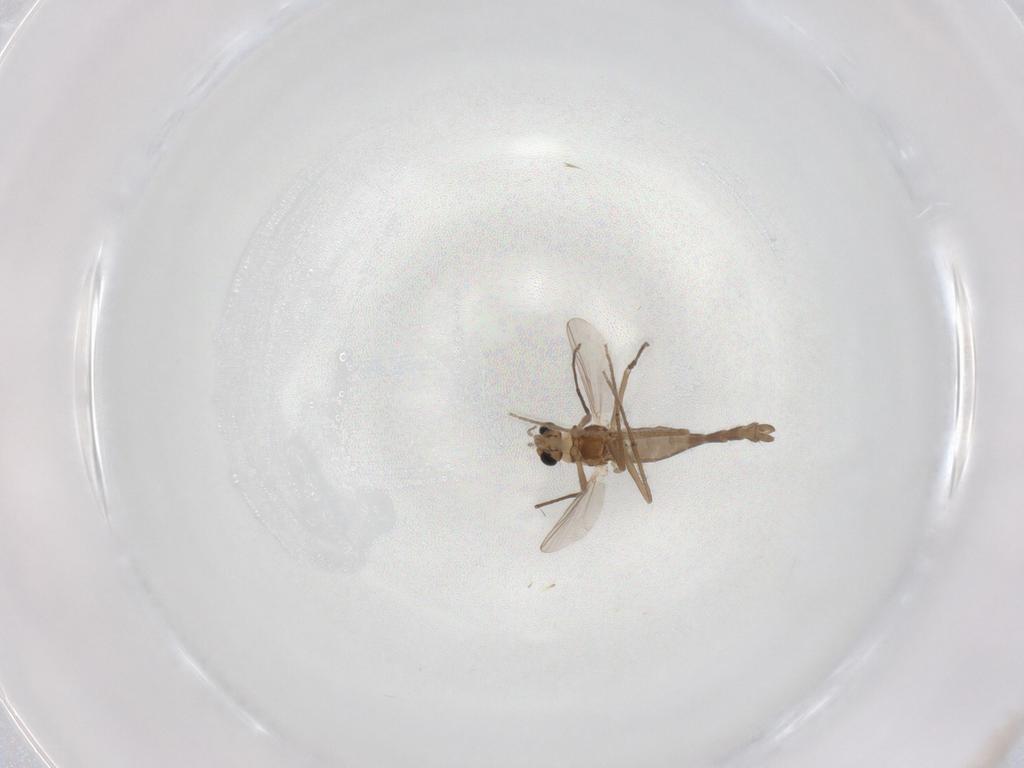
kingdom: Animalia
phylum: Arthropoda
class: Insecta
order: Diptera
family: Chironomidae
